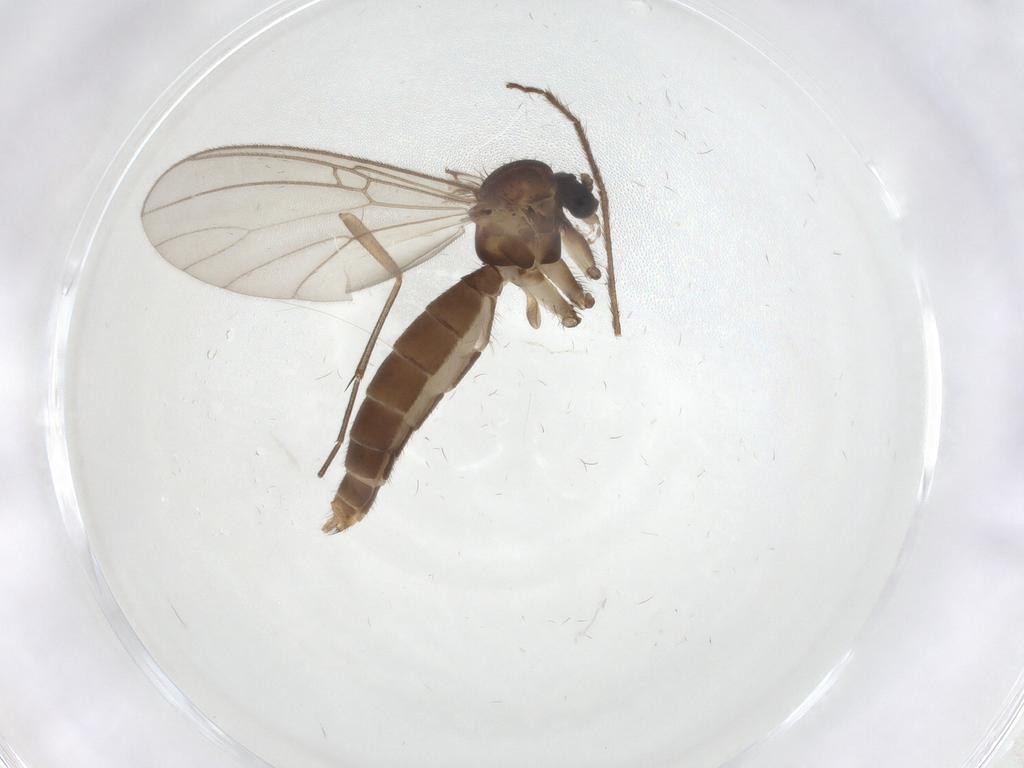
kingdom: Animalia
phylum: Arthropoda
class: Insecta
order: Diptera
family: Mycetophilidae
